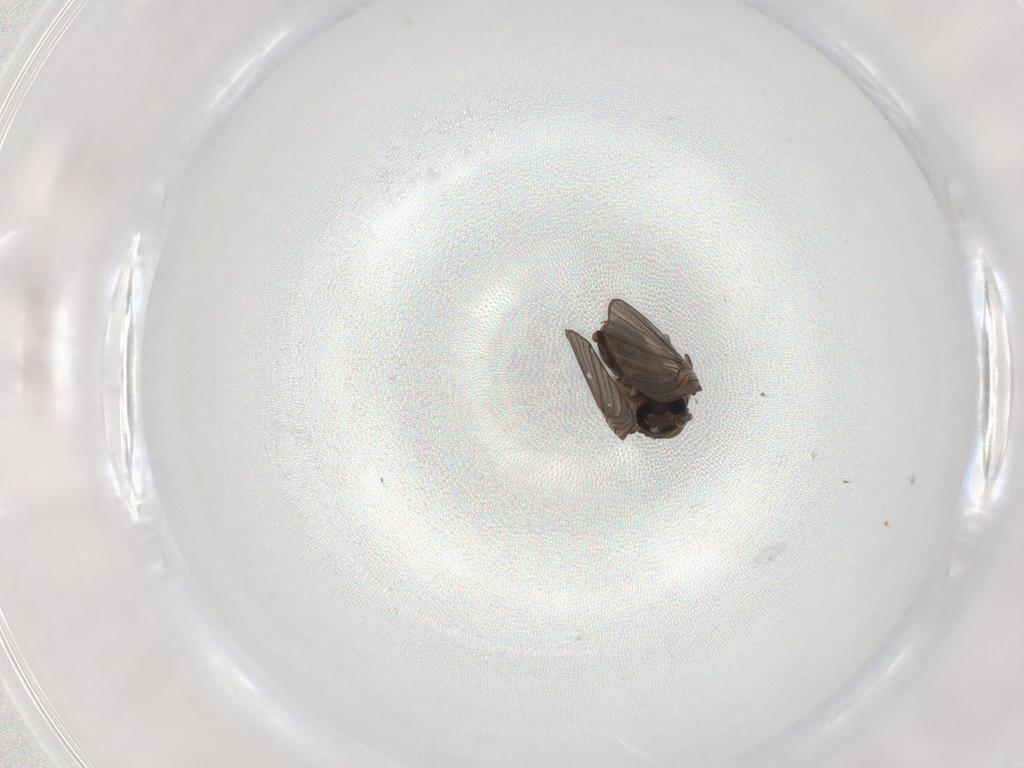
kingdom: Animalia
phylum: Arthropoda
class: Insecta
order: Diptera
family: Psychodidae
